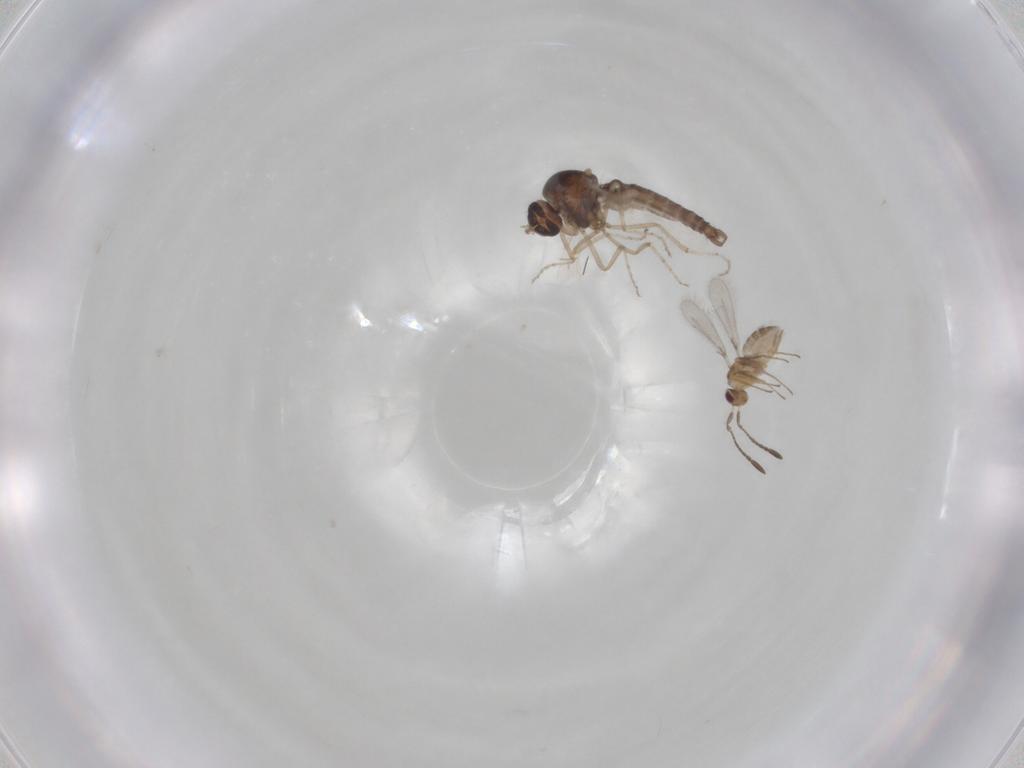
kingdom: Animalia
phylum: Arthropoda
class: Insecta
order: Diptera
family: Ceratopogonidae
